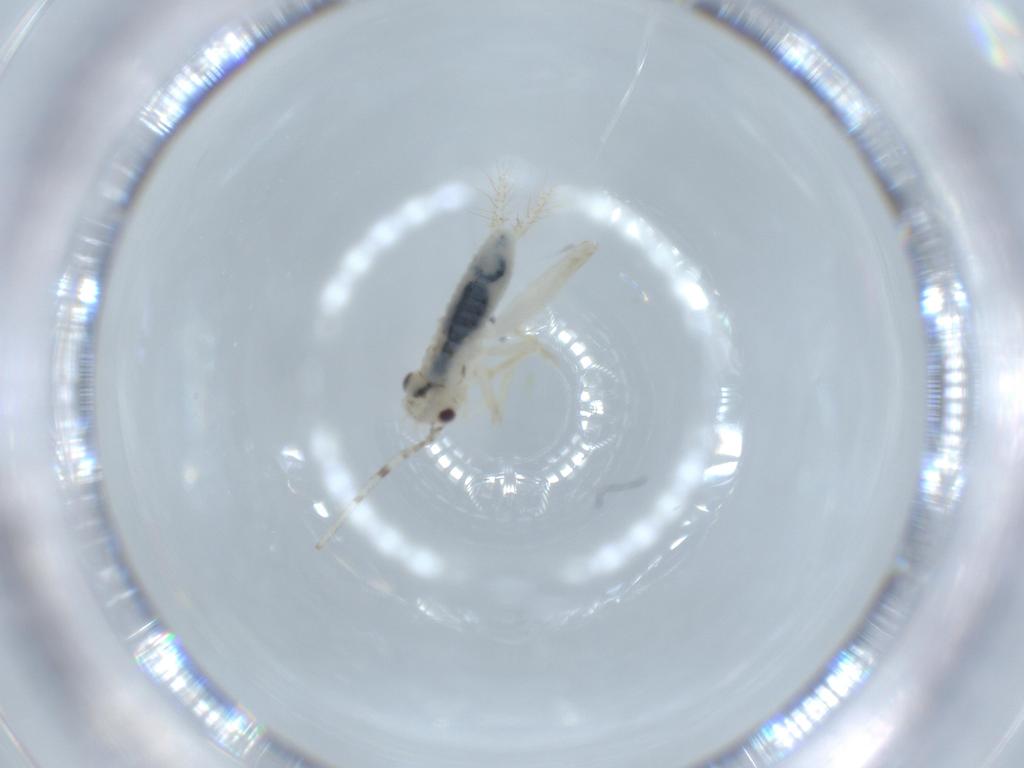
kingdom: Animalia
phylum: Arthropoda
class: Insecta
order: Orthoptera
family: Trigonidiidae
